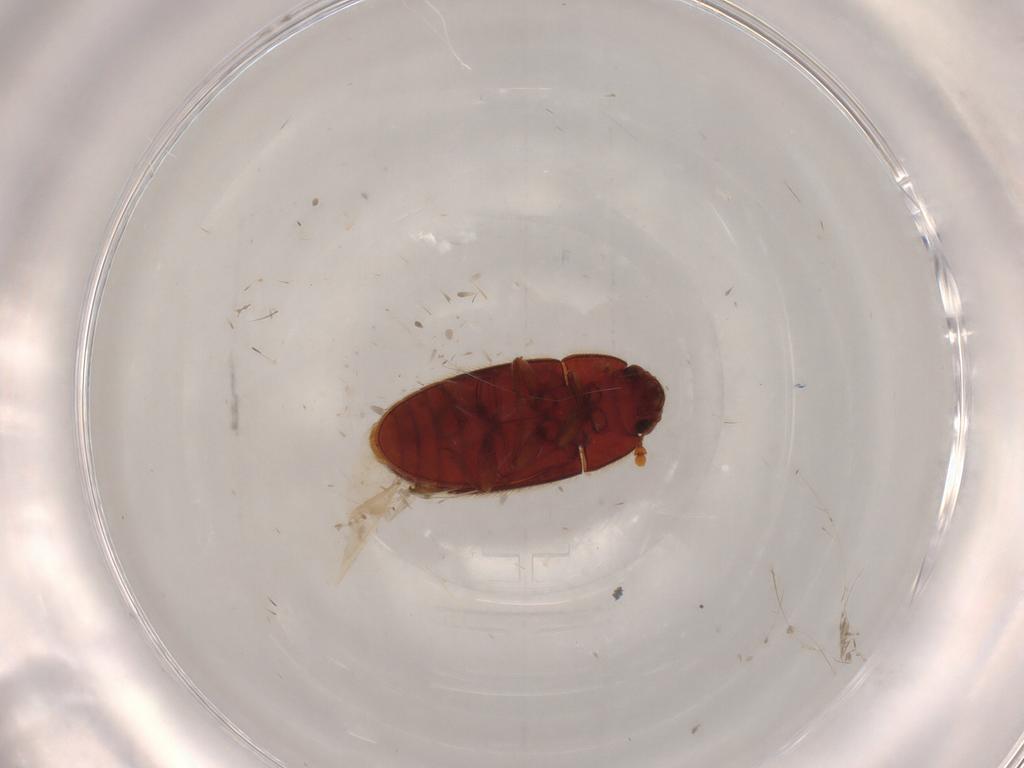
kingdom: Animalia
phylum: Arthropoda
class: Insecta
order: Coleoptera
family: Biphyllidae
